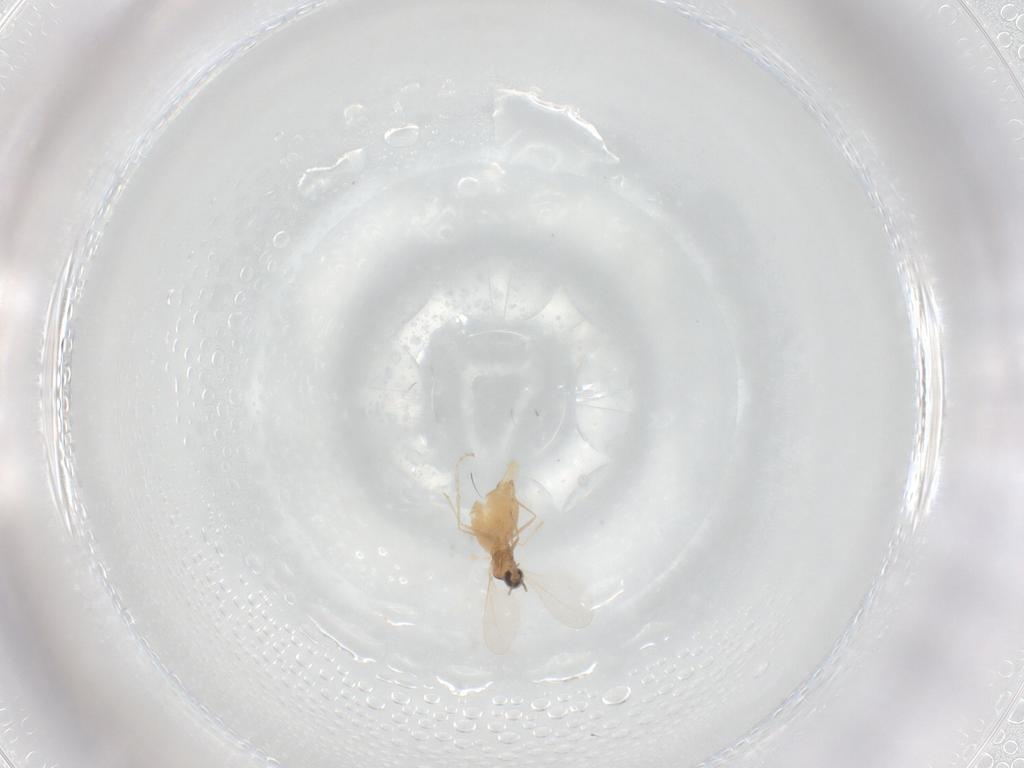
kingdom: Animalia
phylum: Arthropoda
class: Insecta
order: Diptera
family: Cecidomyiidae
